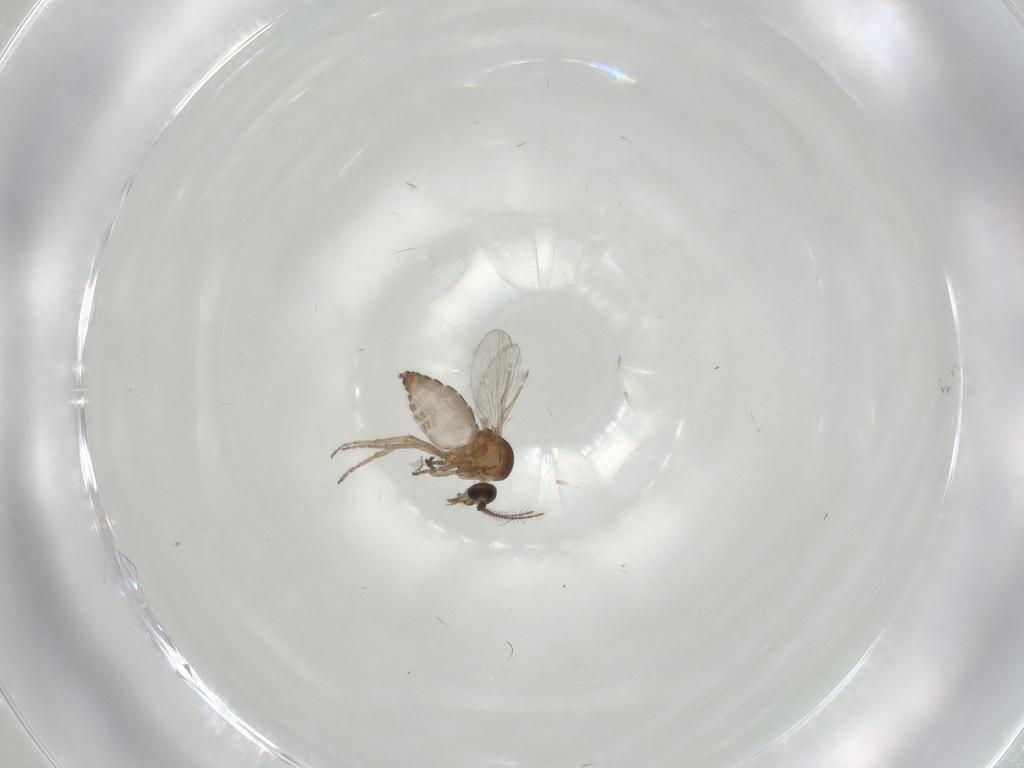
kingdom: Animalia
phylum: Arthropoda
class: Insecta
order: Diptera
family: Ceratopogonidae
